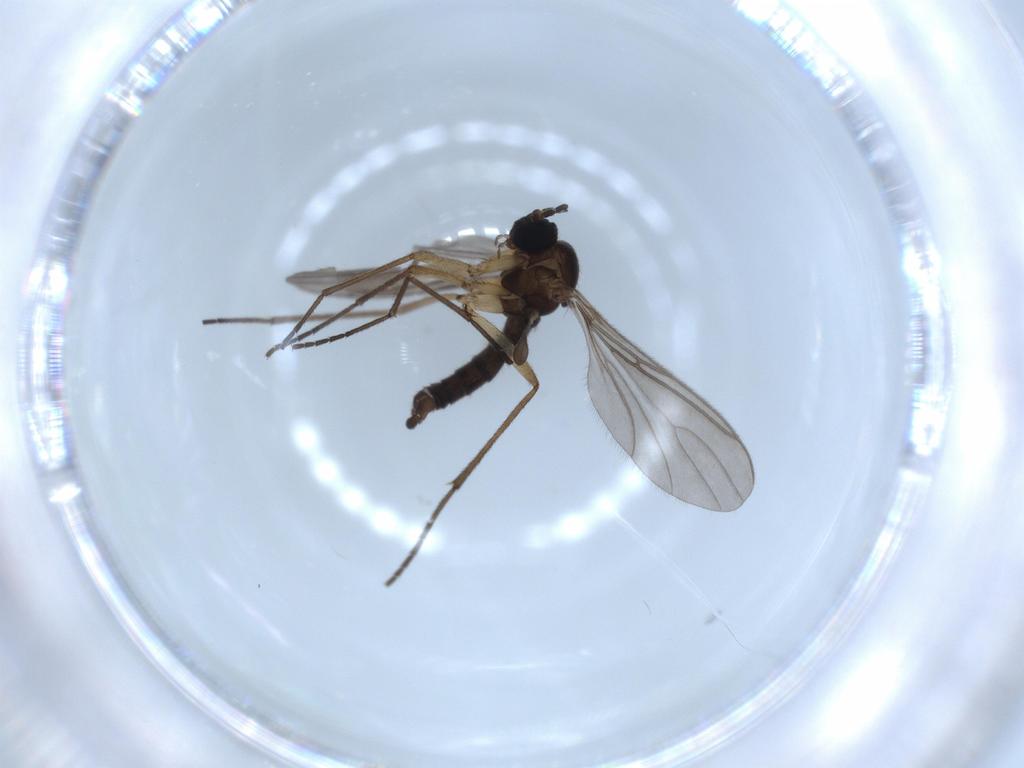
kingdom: Animalia
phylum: Arthropoda
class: Insecta
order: Diptera
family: Sciaridae
